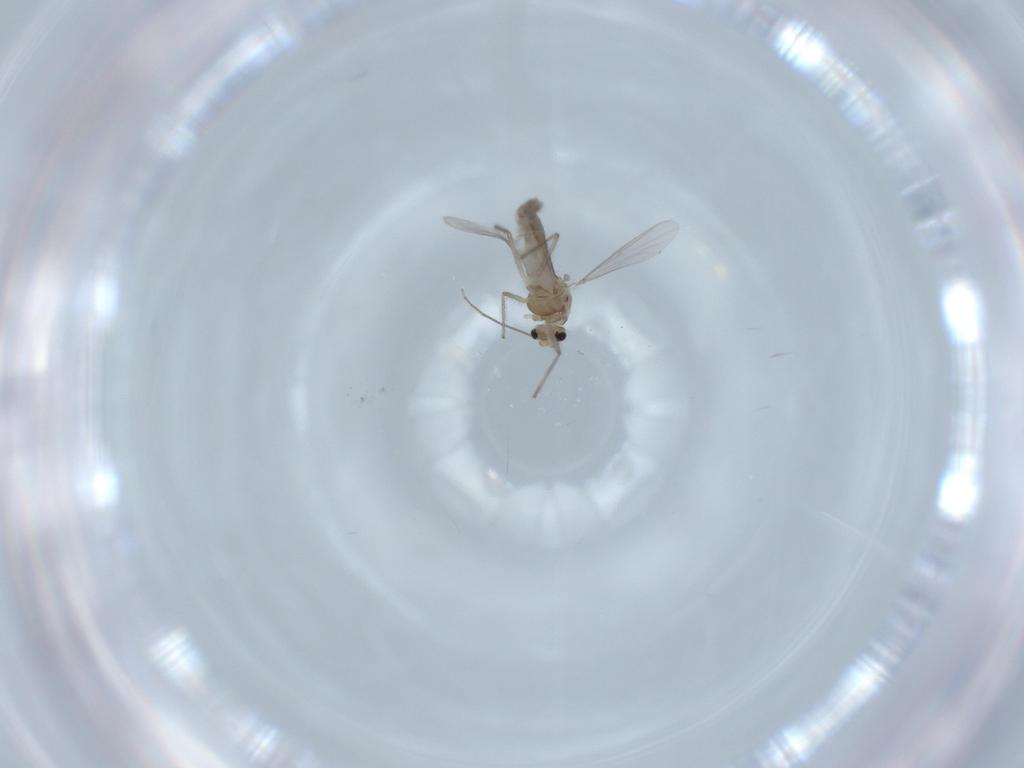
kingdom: Animalia
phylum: Arthropoda
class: Insecta
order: Diptera
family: Chironomidae
